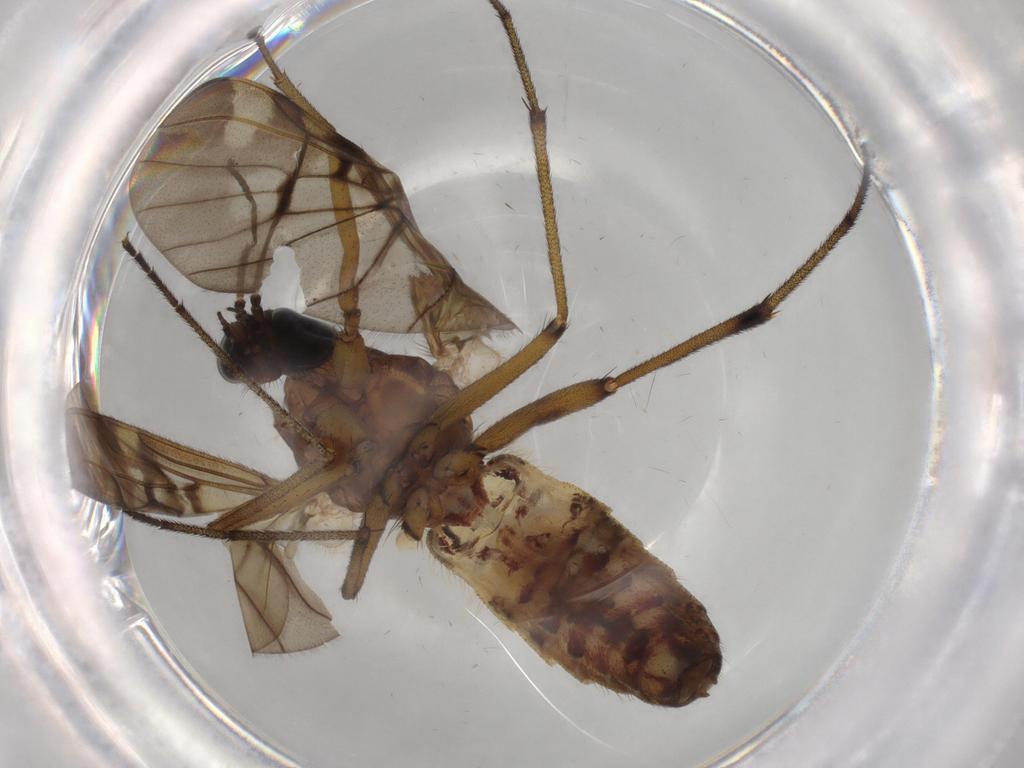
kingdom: Animalia
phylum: Arthropoda
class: Insecta
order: Diptera
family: Anisopodidae
